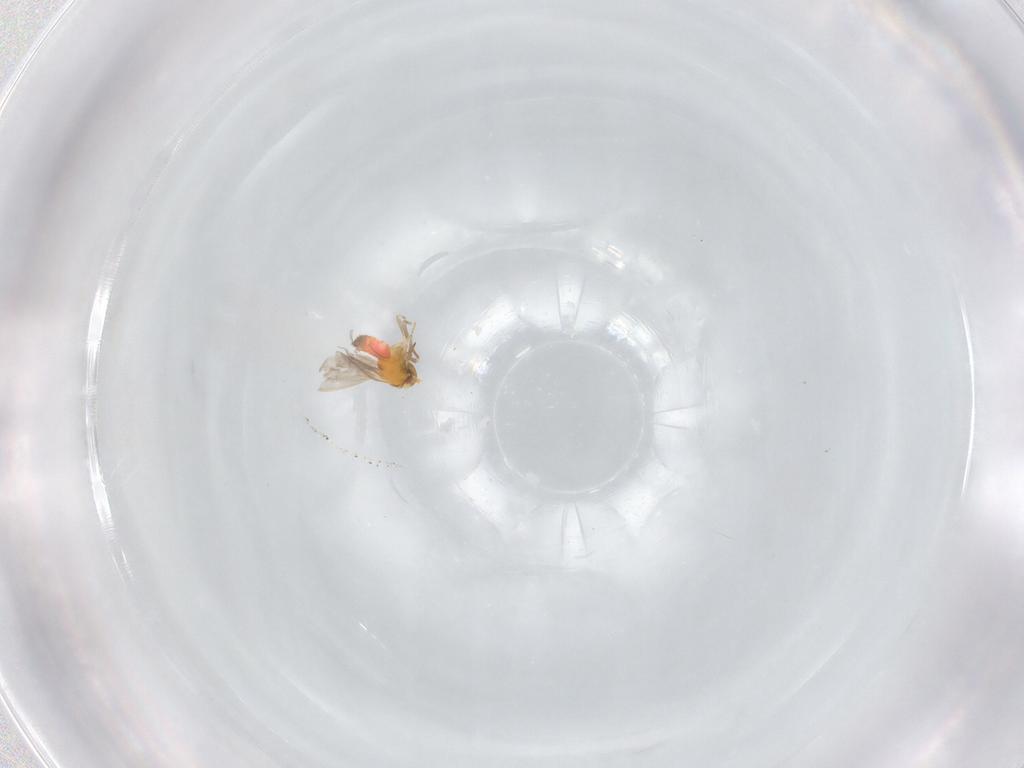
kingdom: Animalia
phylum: Arthropoda
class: Insecta
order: Hemiptera
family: Aleyrodidae
